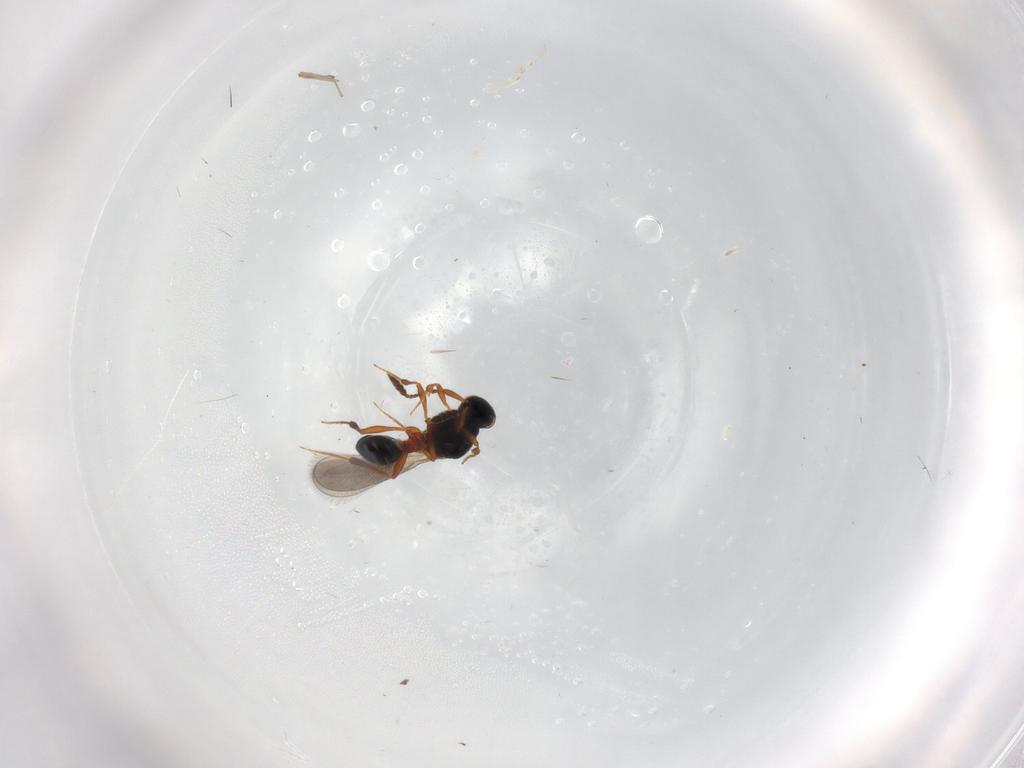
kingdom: Animalia
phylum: Arthropoda
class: Insecta
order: Hymenoptera
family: Platygastridae
